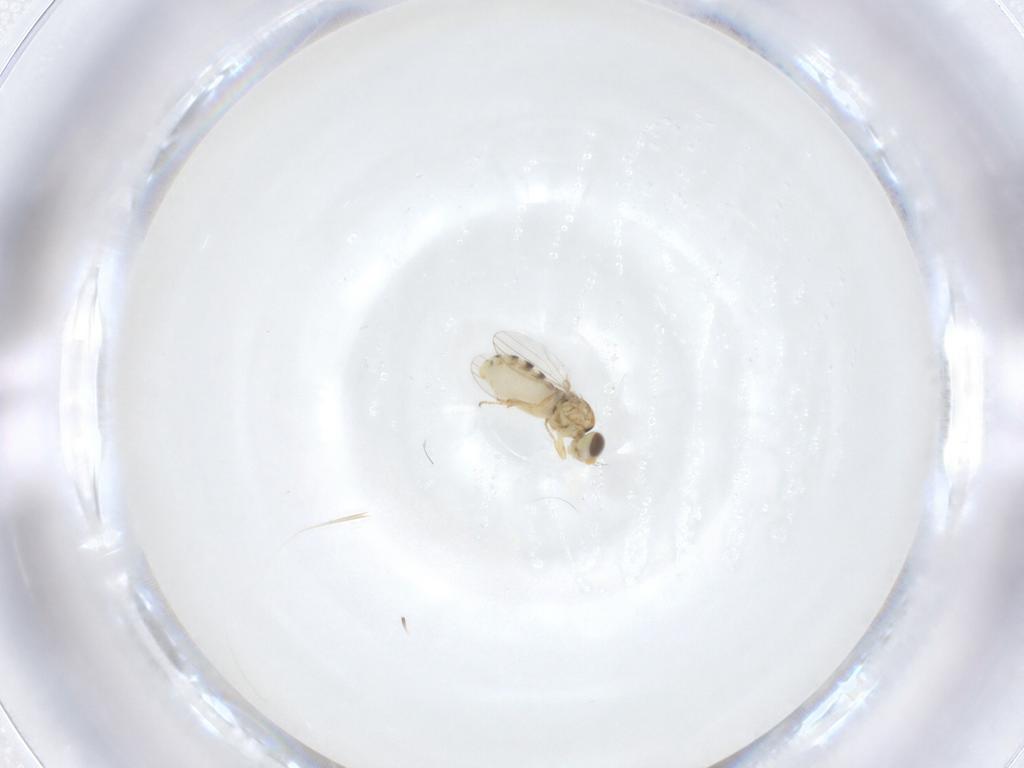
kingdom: Animalia
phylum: Arthropoda
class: Insecta
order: Diptera
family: Chyromyidae
